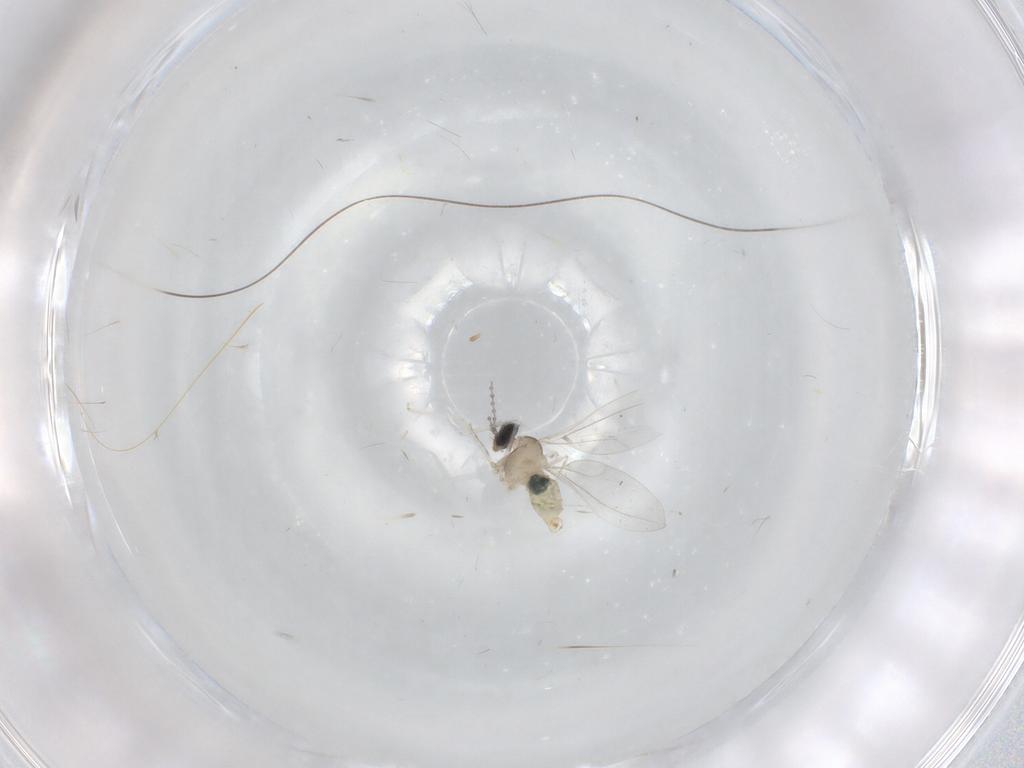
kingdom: Animalia
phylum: Arthropoda
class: Insecta
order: Diptera
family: Cecidomyiidae
